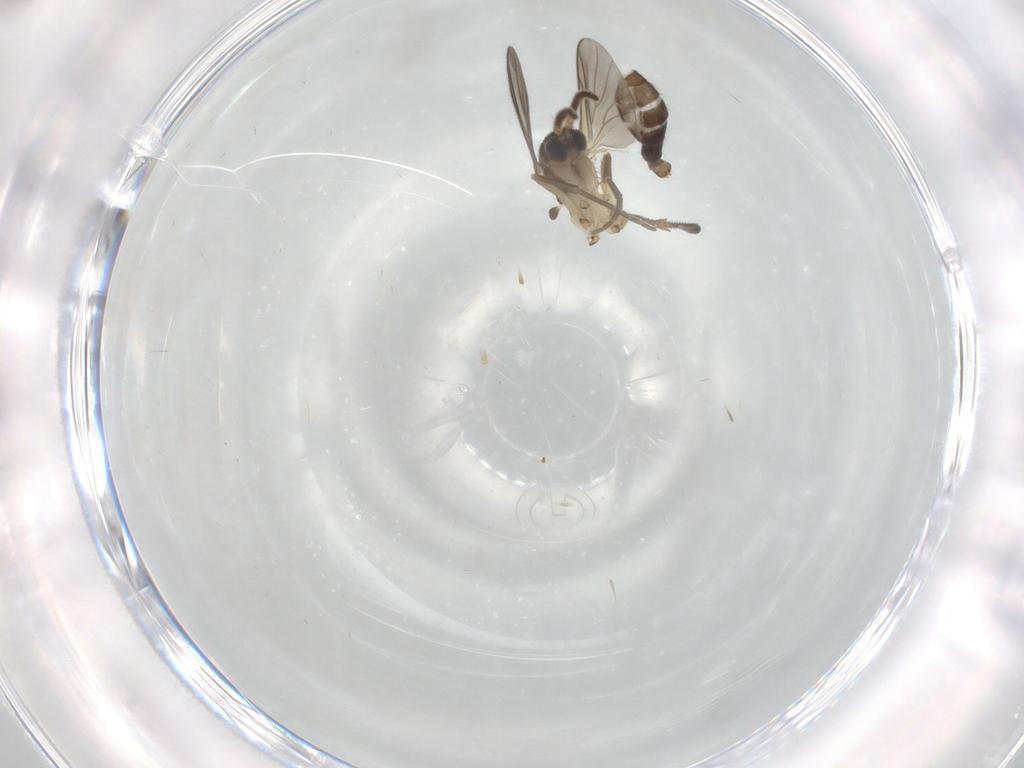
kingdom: Animalia
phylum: Arthropoda
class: Insecta
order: Diptera
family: Mycetophilidae
